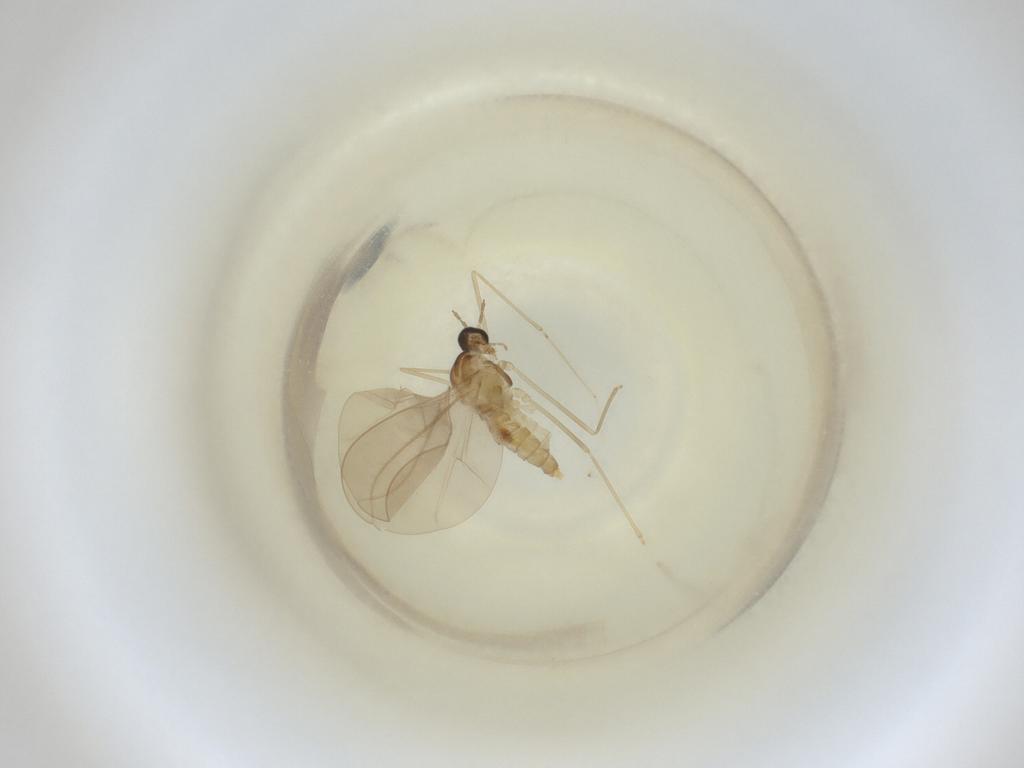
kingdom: Animalia
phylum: Arthropoda
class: Insecta
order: Diptera
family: Cecidomyiidae
